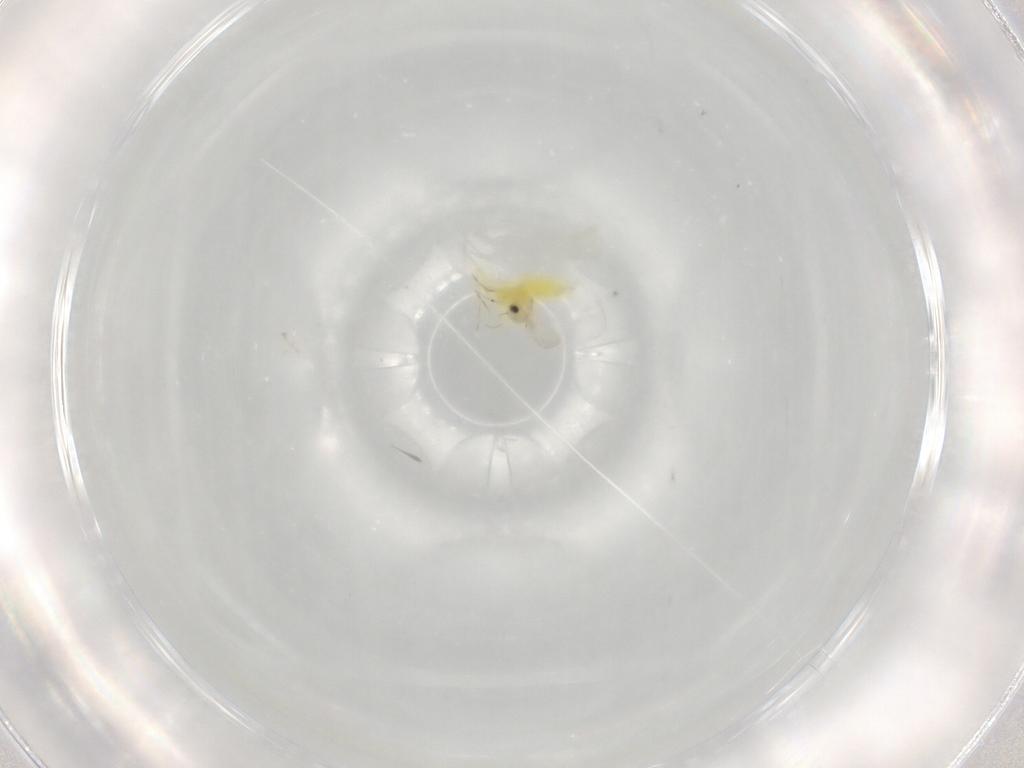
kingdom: Animalia
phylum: Arthropoda
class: Insecta
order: Hemiptera
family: Aleyrodidae
